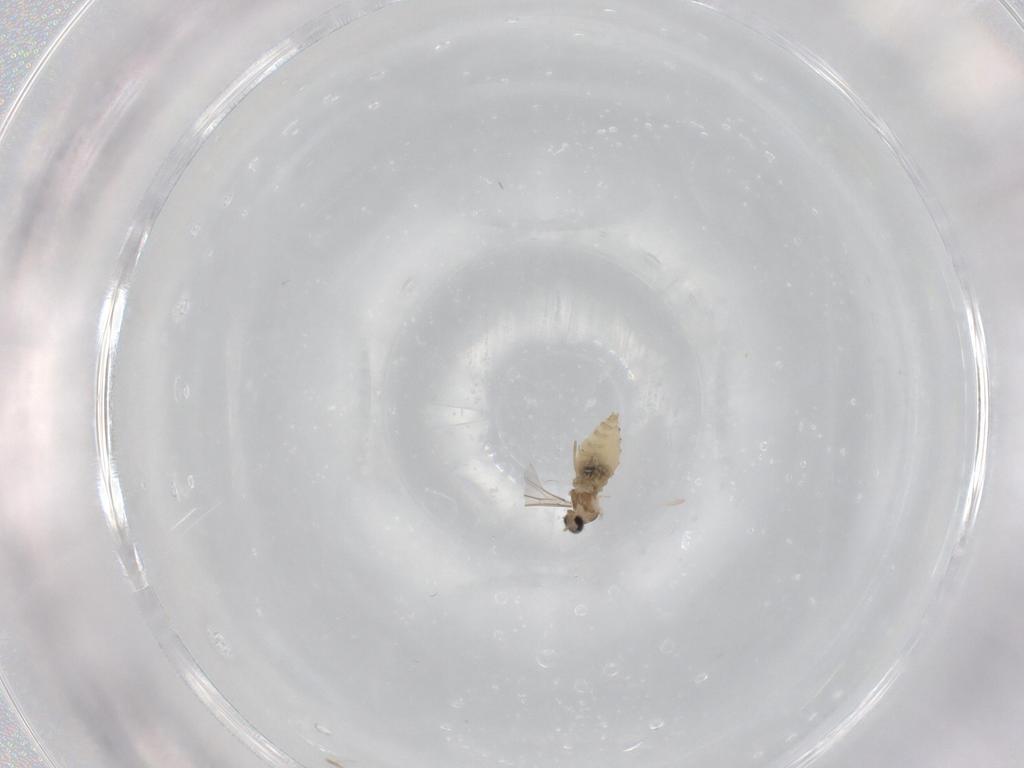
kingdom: Animalia
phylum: Arthropoda
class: Insecta
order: Diptera
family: Cecidomyiidae
